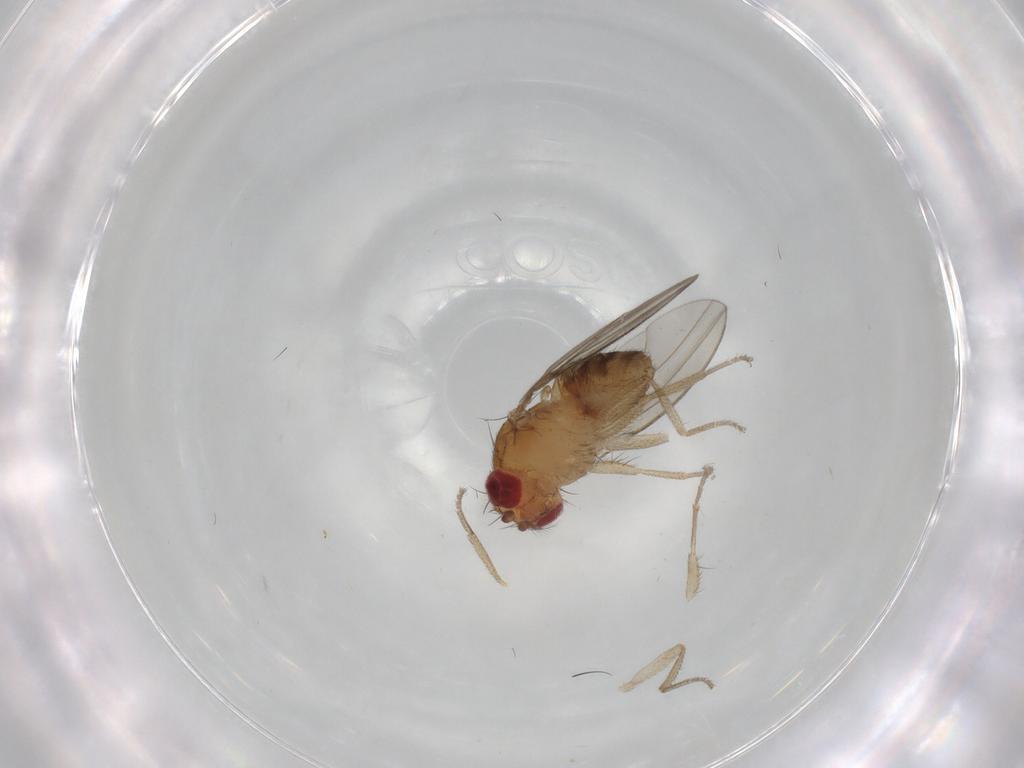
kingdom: Animalia
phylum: Arthropoda
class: Insecta
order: Diptera
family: Drosophilidae
